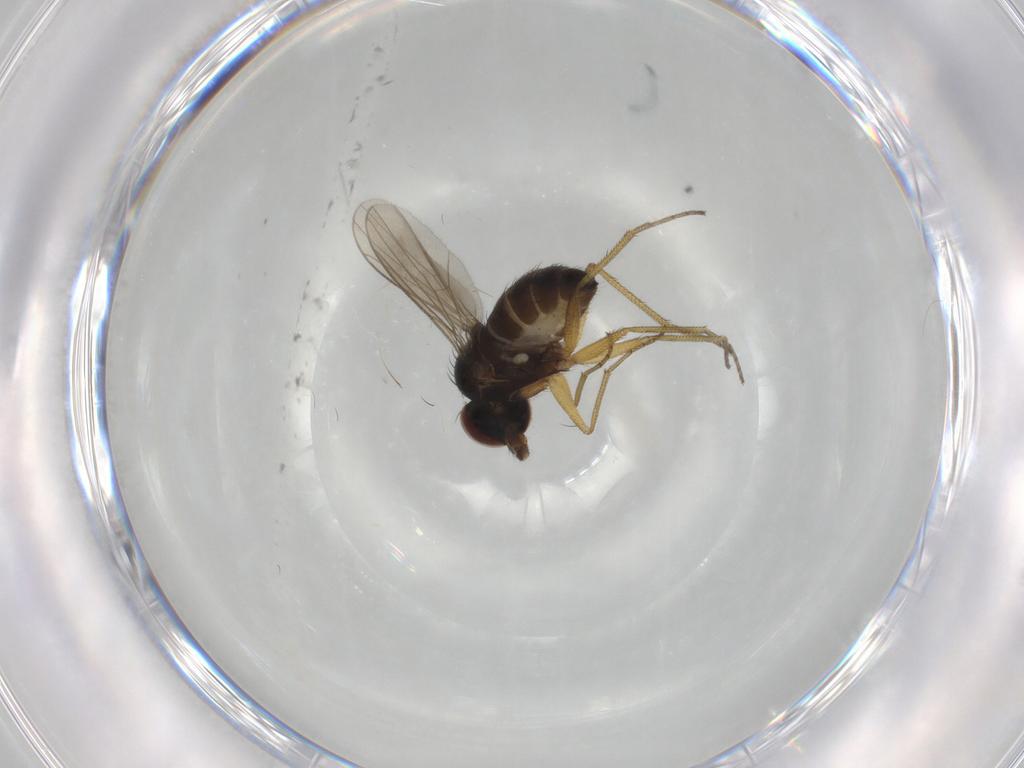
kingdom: Animalia
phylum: Arthropoda
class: Insecta
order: Diptera
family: Dolichopodidae
